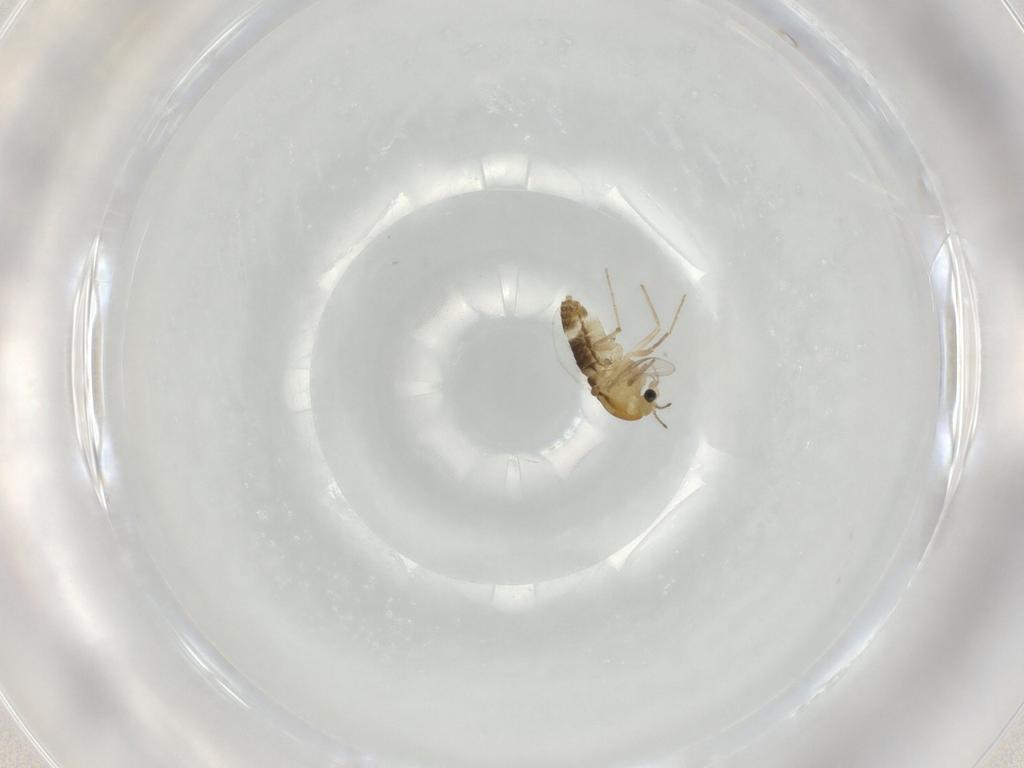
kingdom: Animalia
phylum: Arthropoda
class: Insecta
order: Diptera
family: Chironomidae
